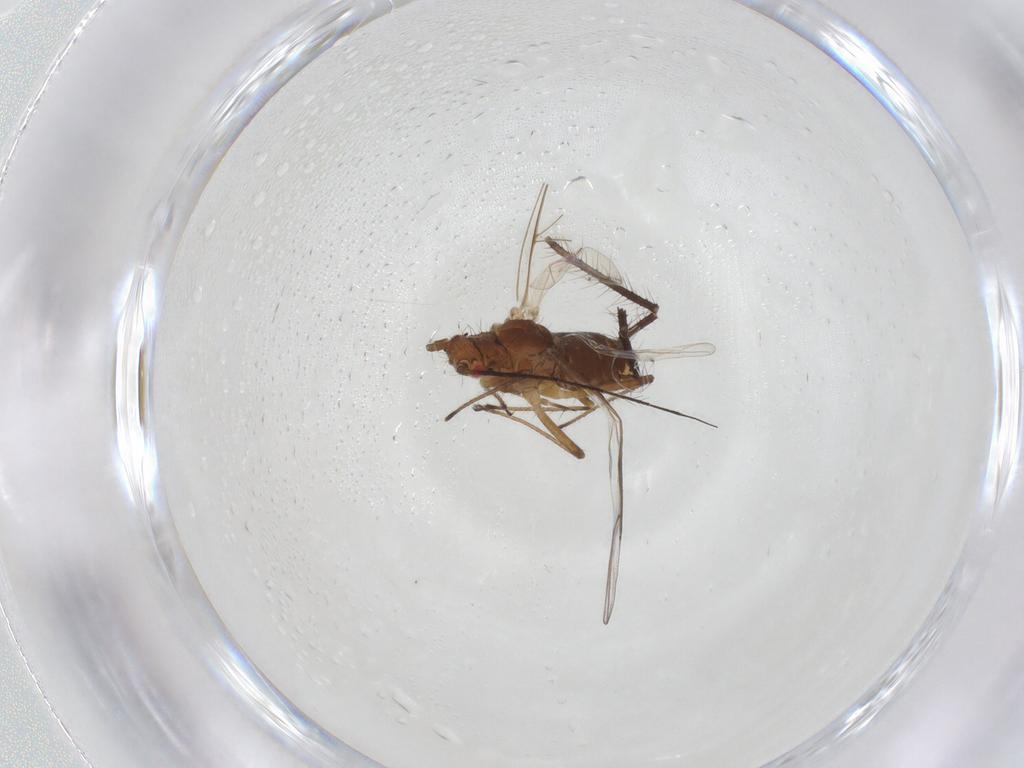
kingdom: Animalia
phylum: Arthropoda
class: Insecta
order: Hemiptera
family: Aphididae
